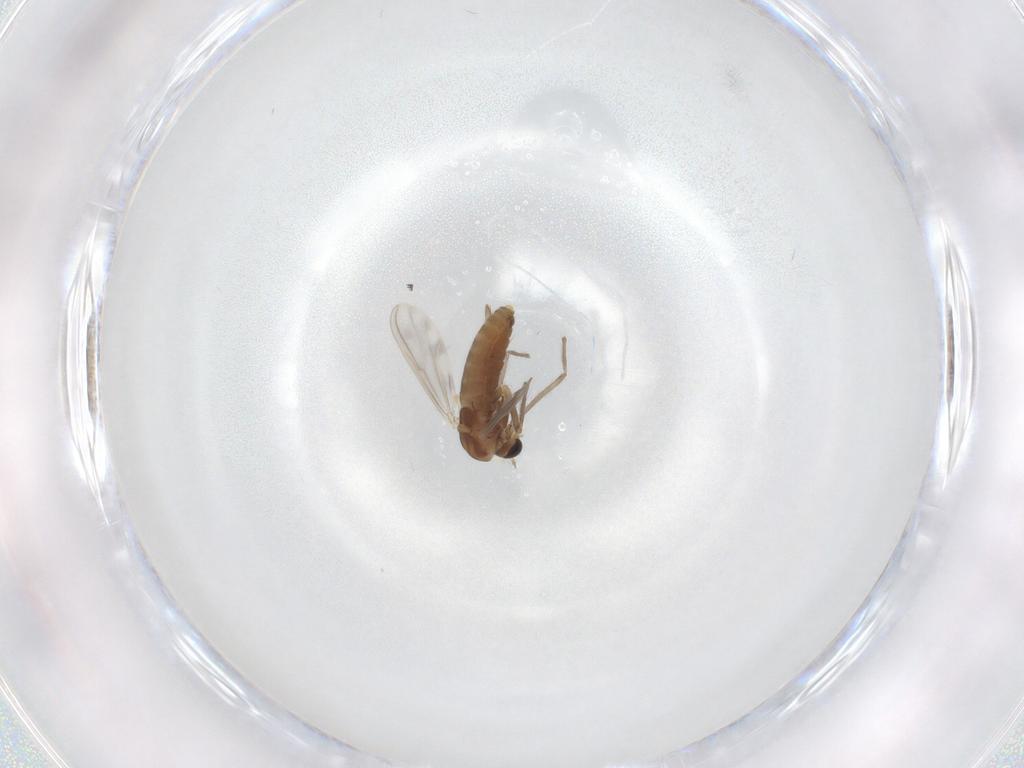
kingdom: Animalia
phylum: Arthropoda
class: Insecta
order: Diptera
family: Chironomidae
